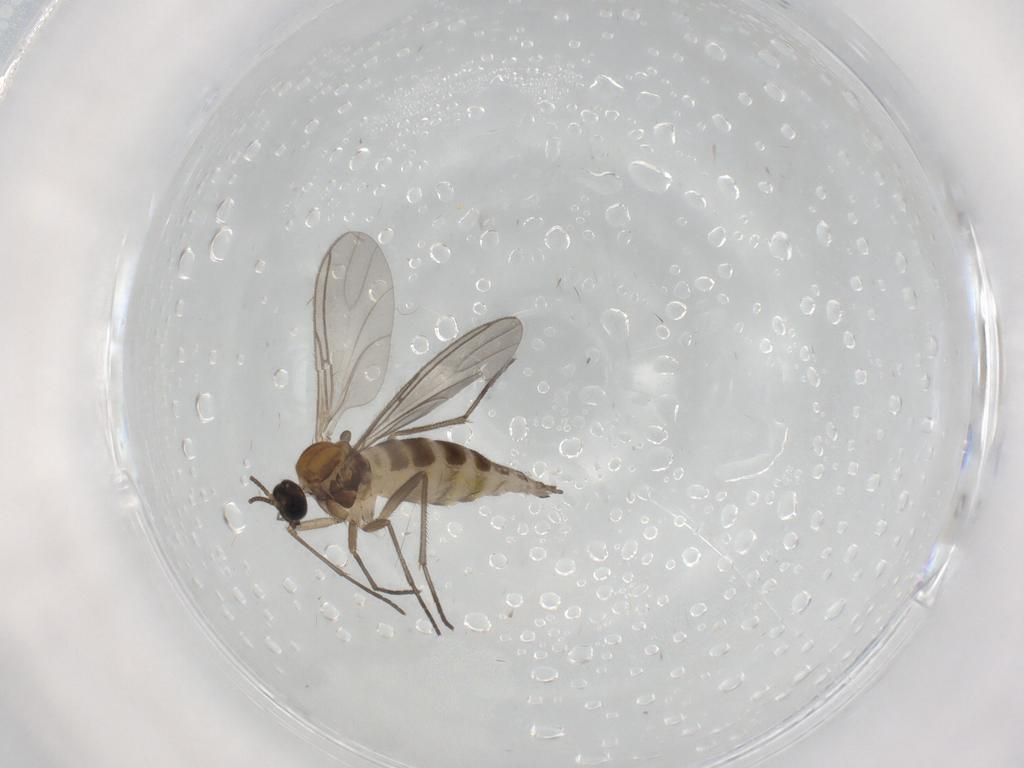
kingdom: Animalia
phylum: Arthropoda
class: Insecta
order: Diptera
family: Sciaridae
